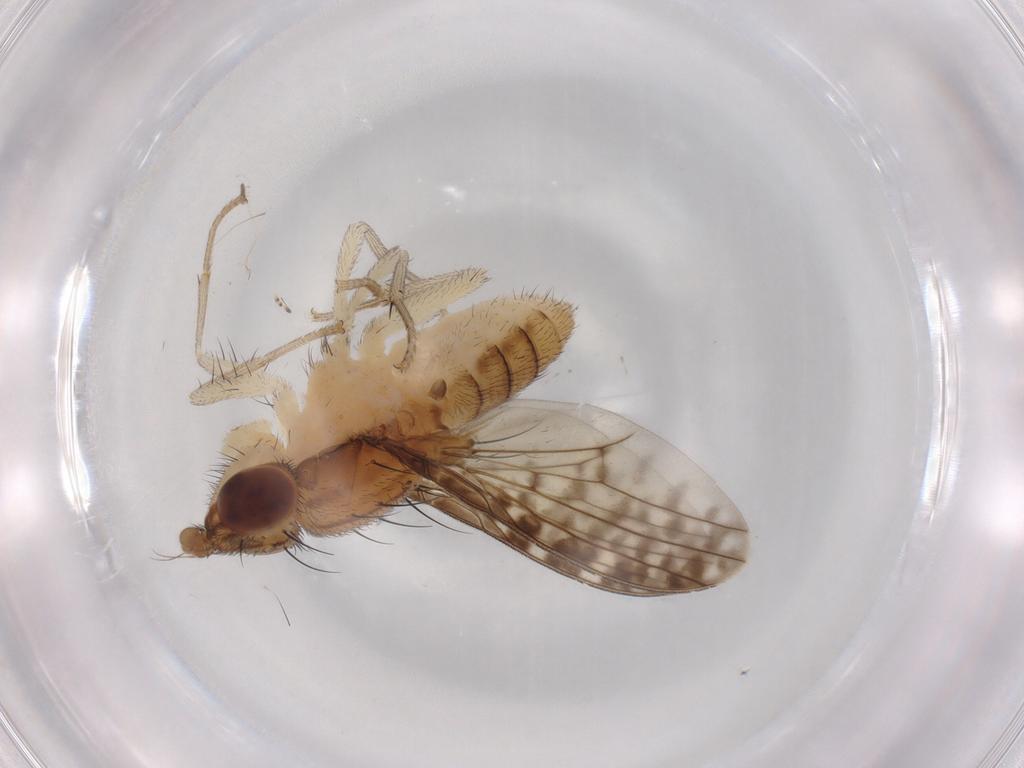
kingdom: Animalia
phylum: Arthropoda
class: Insecta
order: Diptera
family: Lauxaniidae
